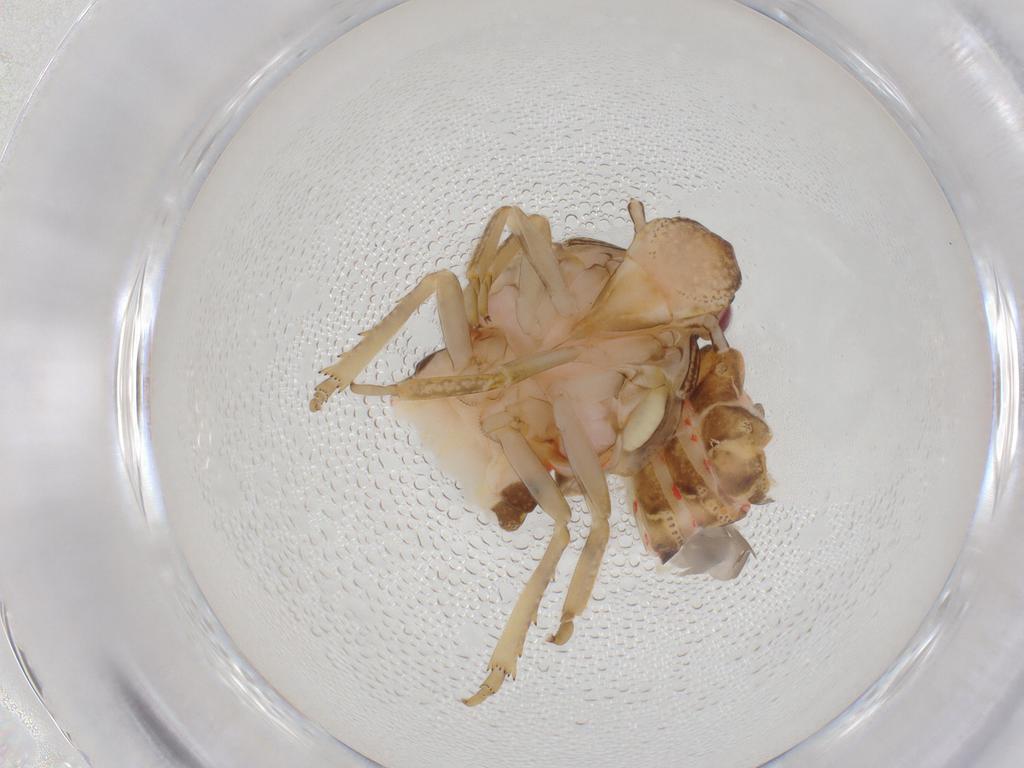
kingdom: Animalia
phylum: Arthropoda
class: Insecta
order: Hemiptera
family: Flatidae
